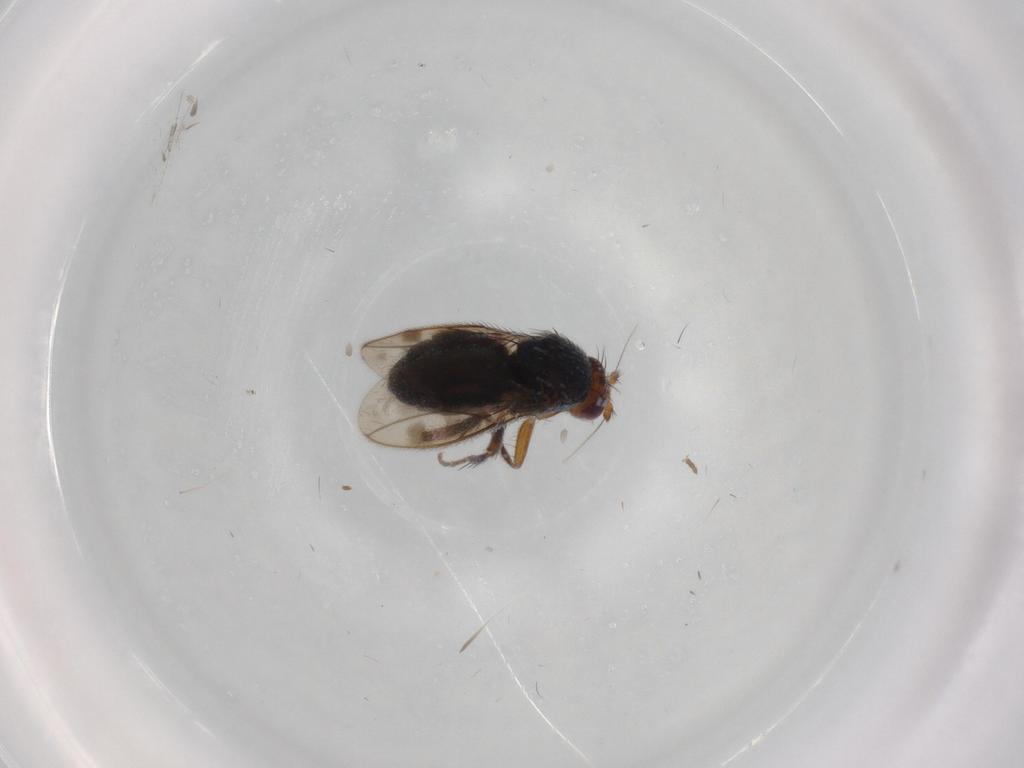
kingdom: Animalia
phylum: Arthropoda
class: Insecta
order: Diptera
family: Sphaeroceridae
